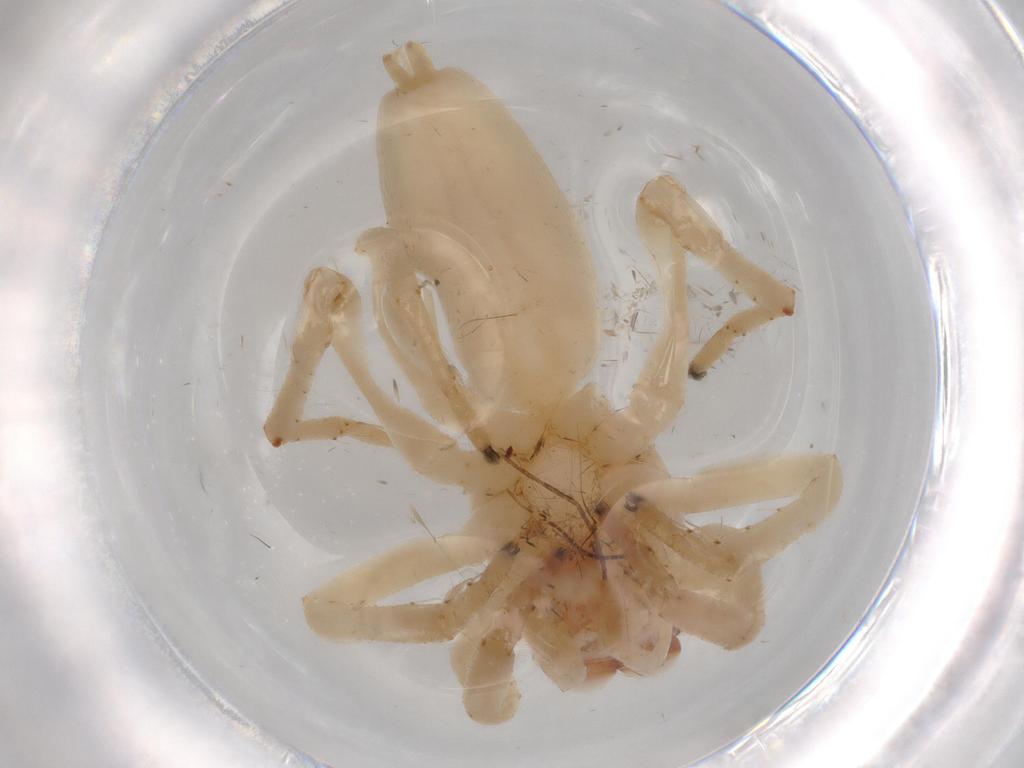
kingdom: Animalia
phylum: Arthropoda
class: Arachnida
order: Araneae
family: Salticidae
